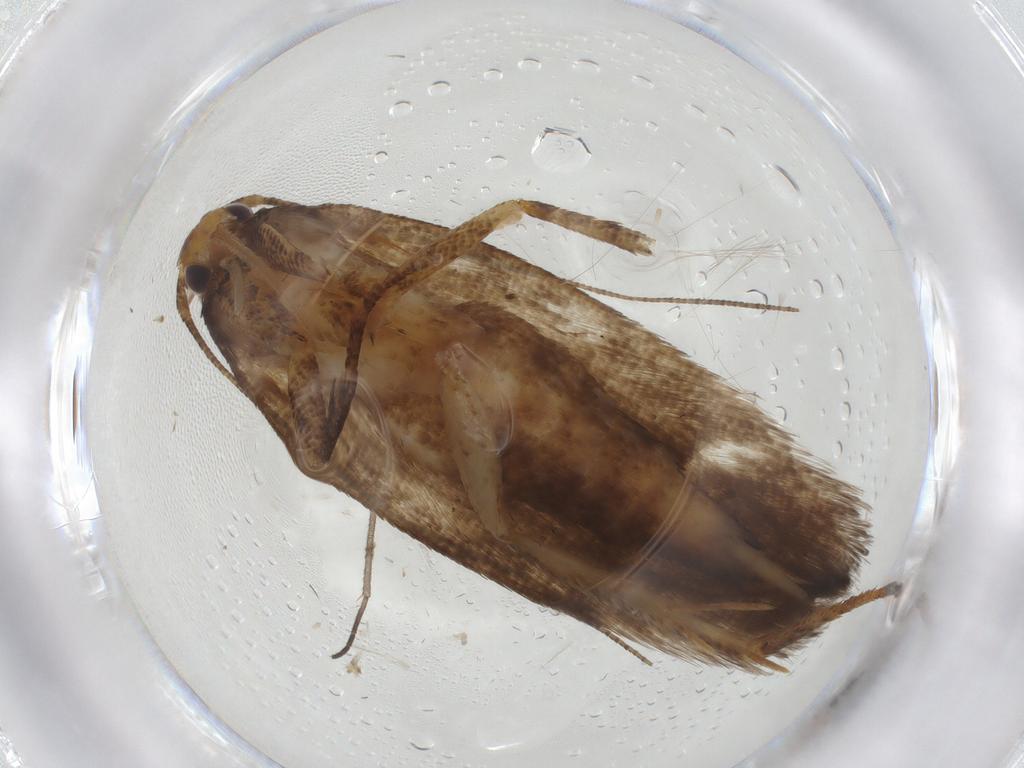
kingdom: Animalia
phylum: Arthropoda
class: Insecta
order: Lepidoptera
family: Gelechiidae
